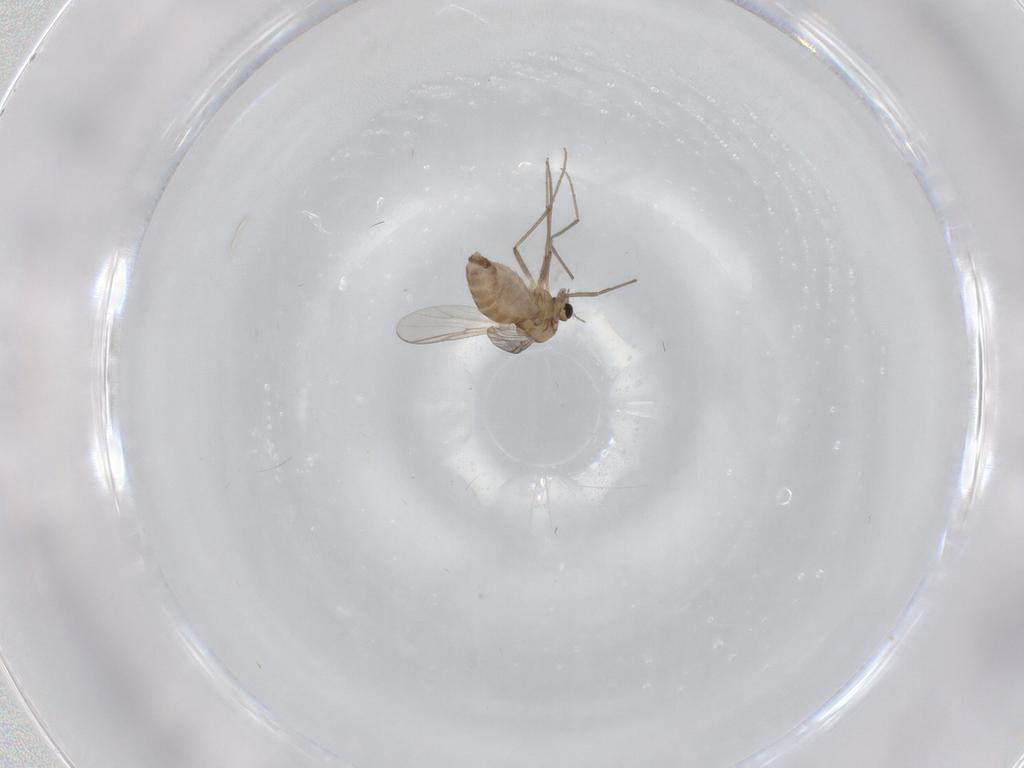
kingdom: Animalia
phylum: Arthropoda
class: Insecta
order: Diptera
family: Chironomidae
